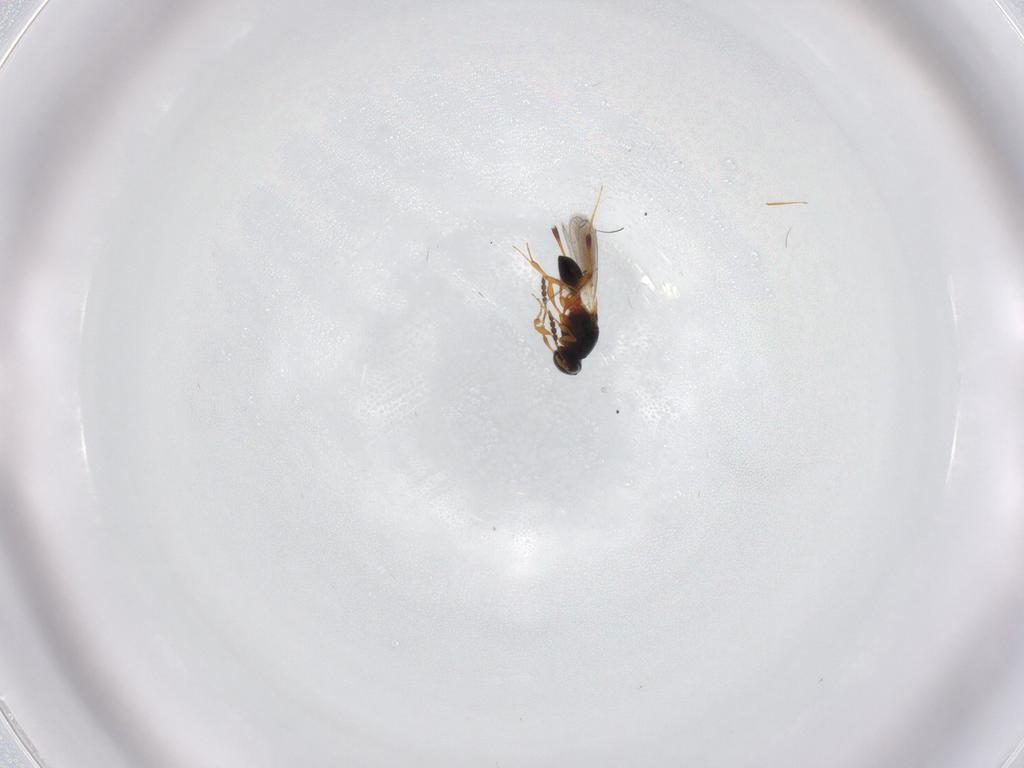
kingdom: Animalia
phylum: Arthropoda
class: Insecta
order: Hymenoptera
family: Platygastridae
